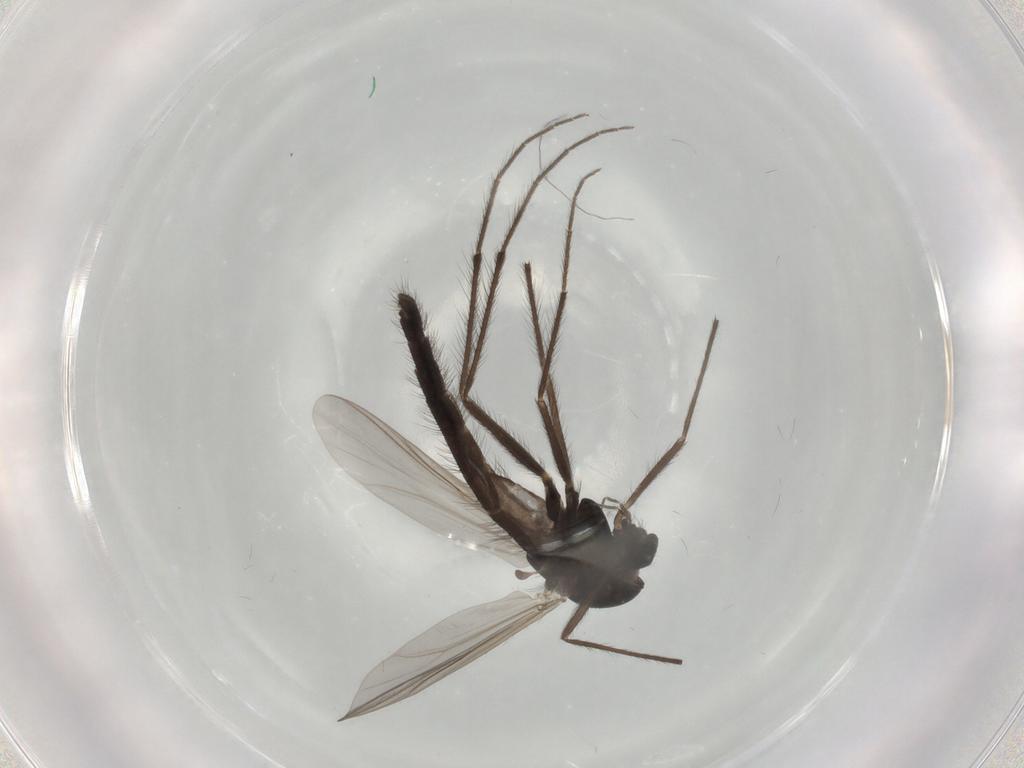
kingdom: Animalia
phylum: Arthropoda
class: Insecta
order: Diptera
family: Chironomidae
